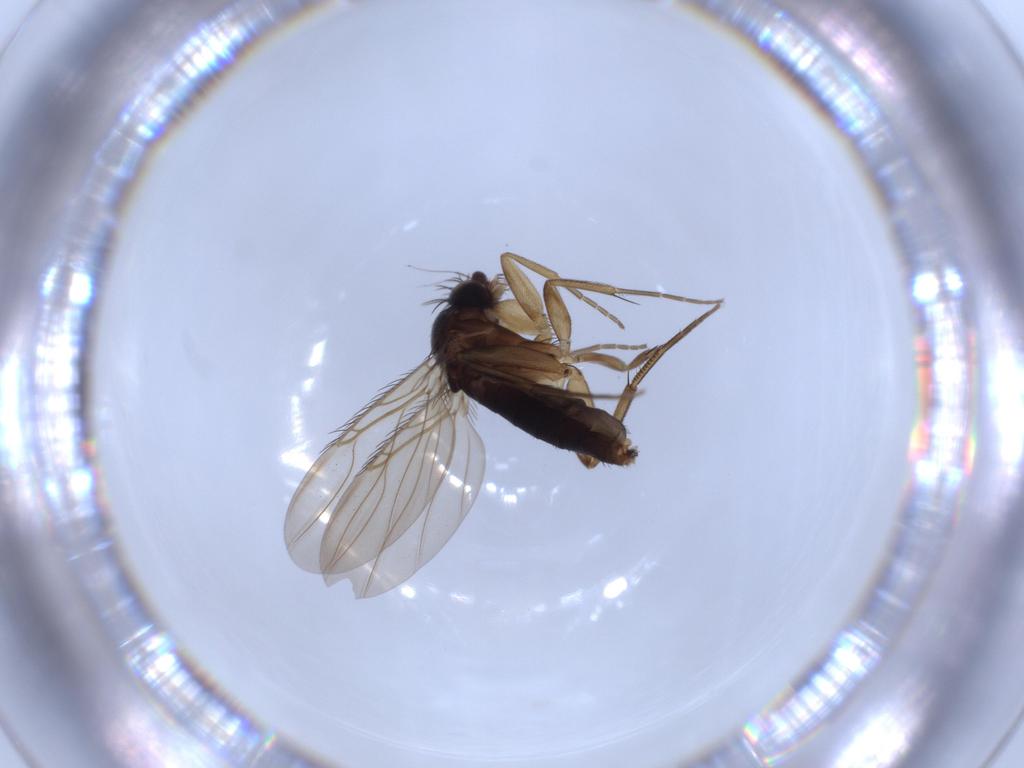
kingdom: Animalia
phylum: Arthropoda
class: Insecta
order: Diptera
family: Phoridae
